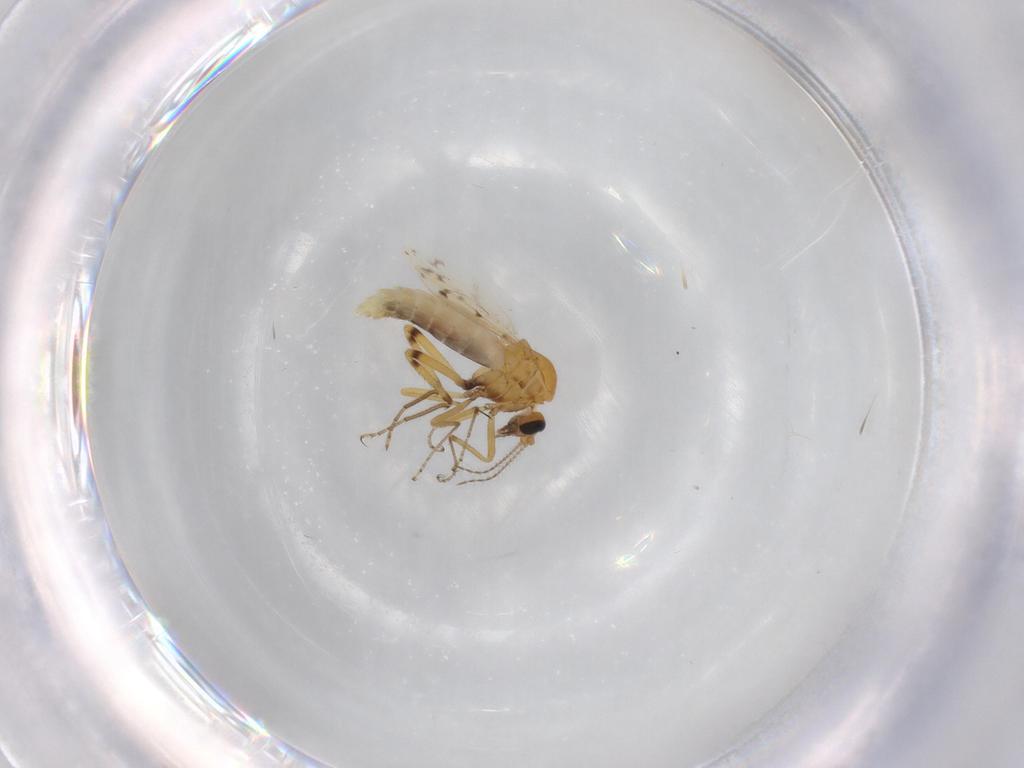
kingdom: Animalia
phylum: Arthropoda
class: Insecta
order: Diptera
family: Ceratopogonidae
